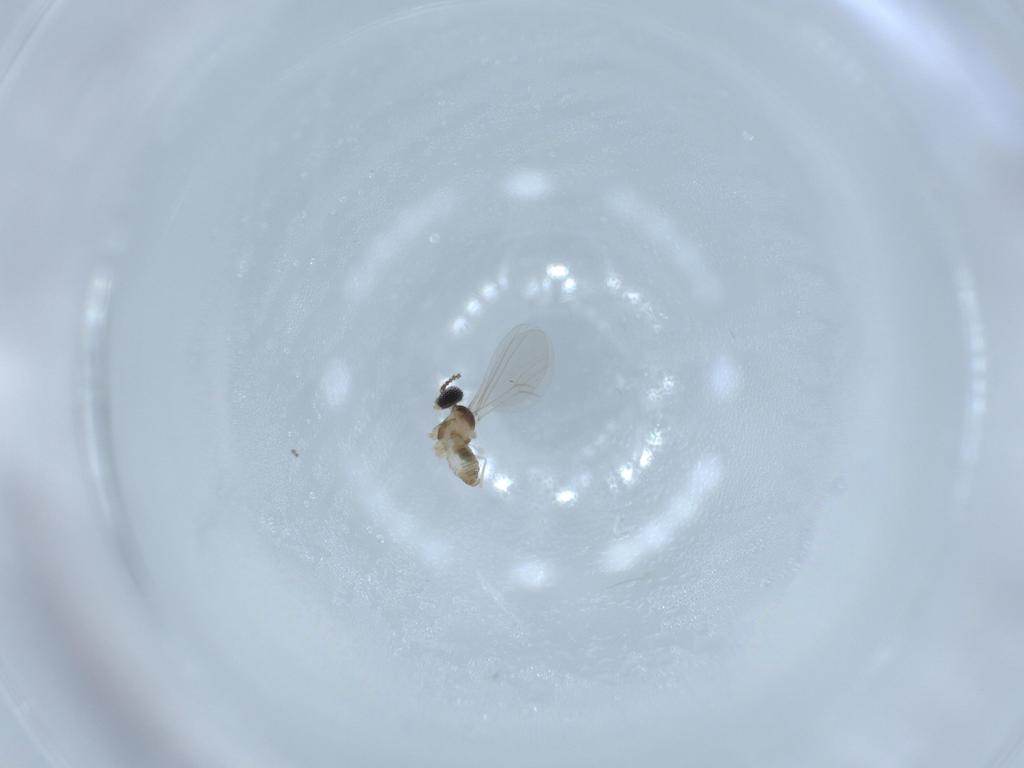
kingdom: Animalia
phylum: Arthropoda
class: Insecta
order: Diptera
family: Cecidomyiidae
